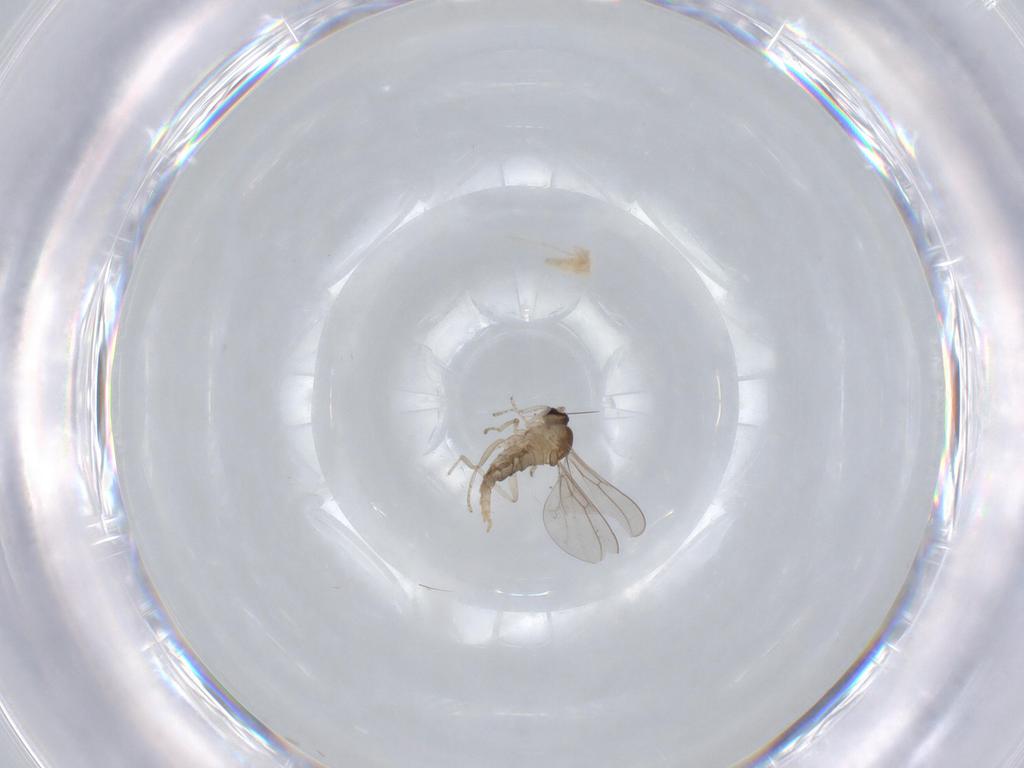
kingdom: Animalia
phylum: Arthropoda
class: Insecta
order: Diptera
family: Cecidomyiidae
